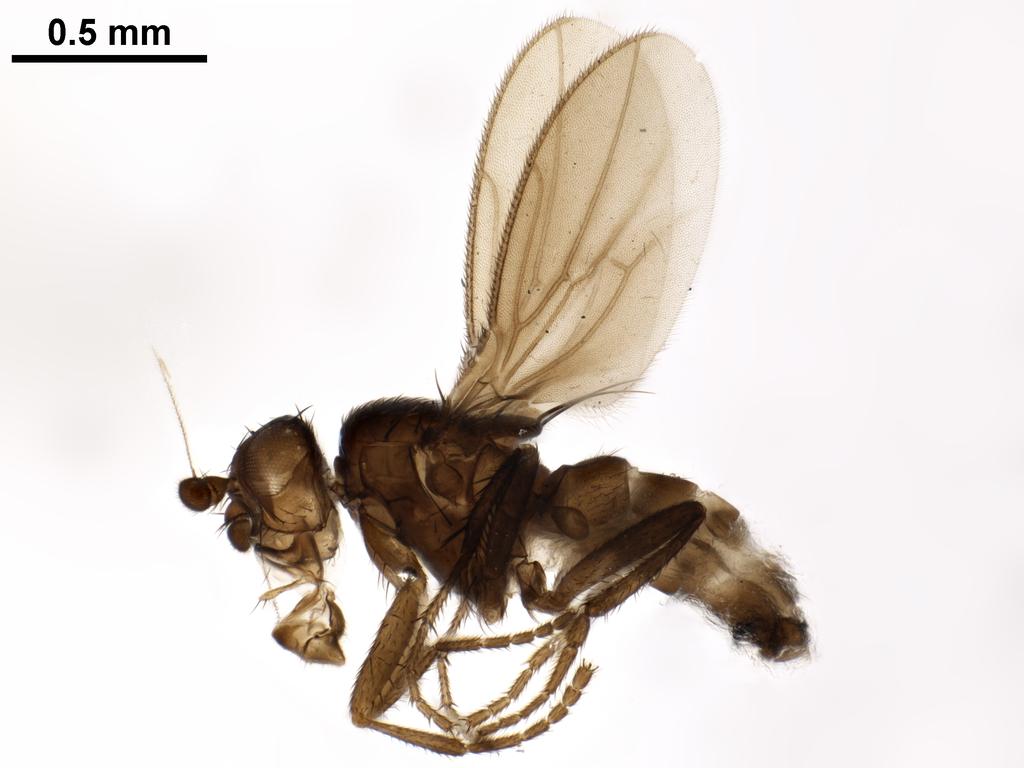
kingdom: Animalia
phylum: Arthropoda
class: Insecta
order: Diptera
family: Sphaeroceridae
